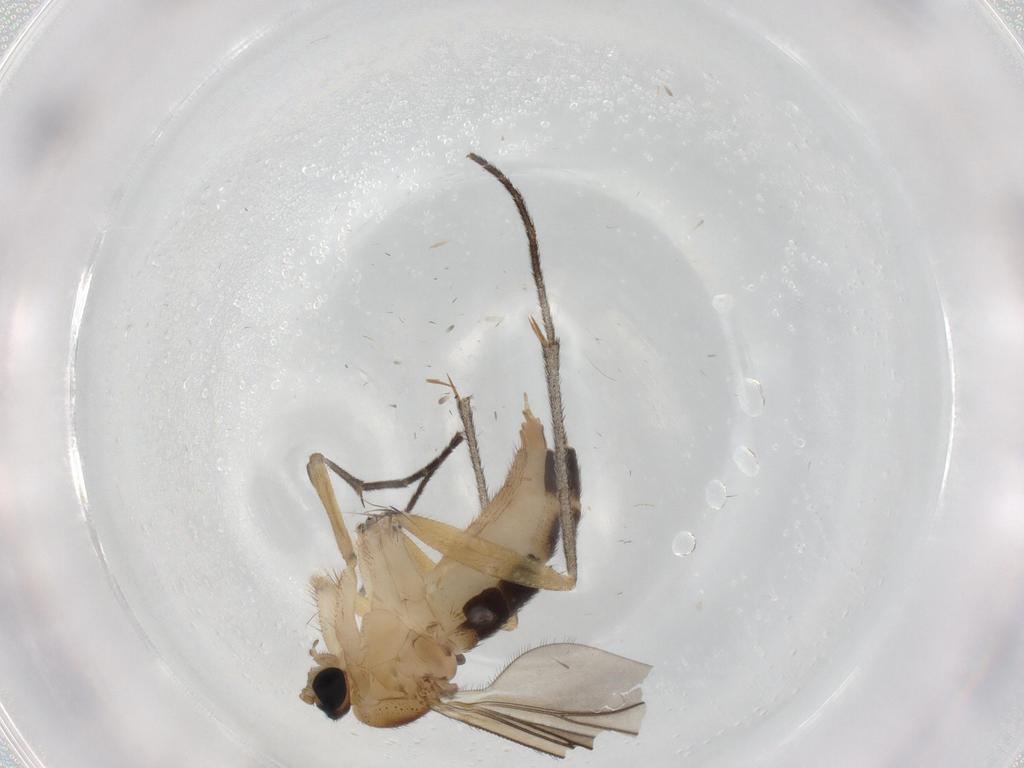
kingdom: Animalia
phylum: Arthropoda
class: Insecta
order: Diptera
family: Sciaridae
